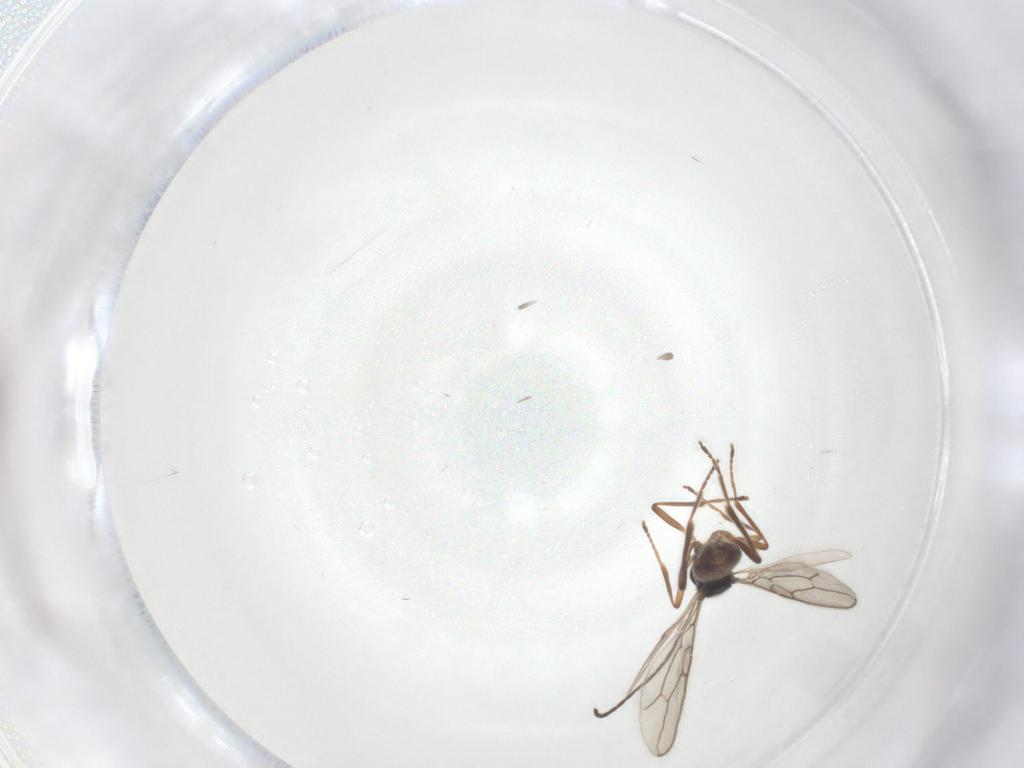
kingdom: Animalia
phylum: Arthropoda
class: Insecta
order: Hymenoptera
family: Braconidae
